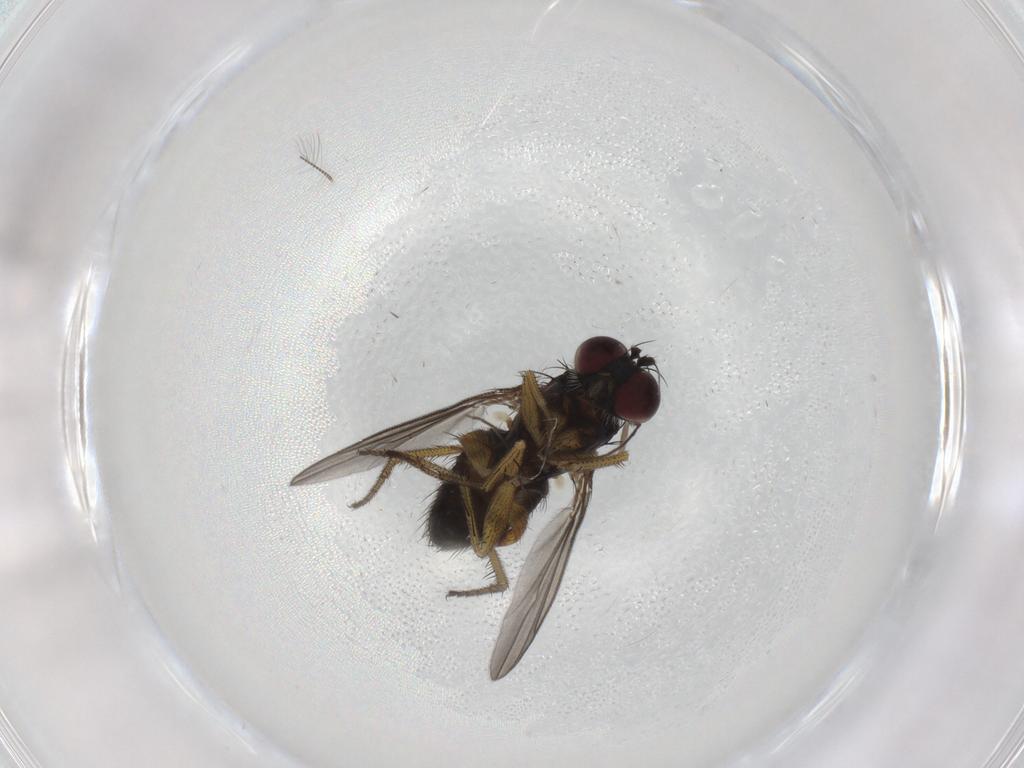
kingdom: Animalia
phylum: Arthropoda
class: Insecta
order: Diptera
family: Dolichopodidae
